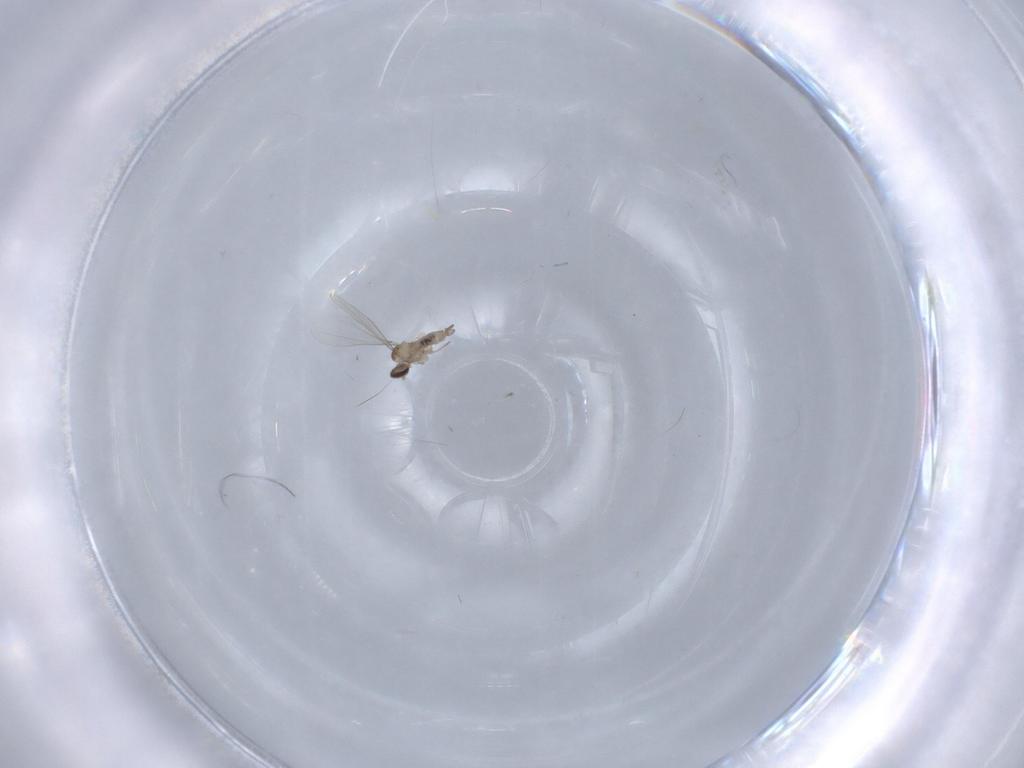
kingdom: Animalia
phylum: Arthropoda
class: Insecta
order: Diptera
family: Cecidomyiidae
